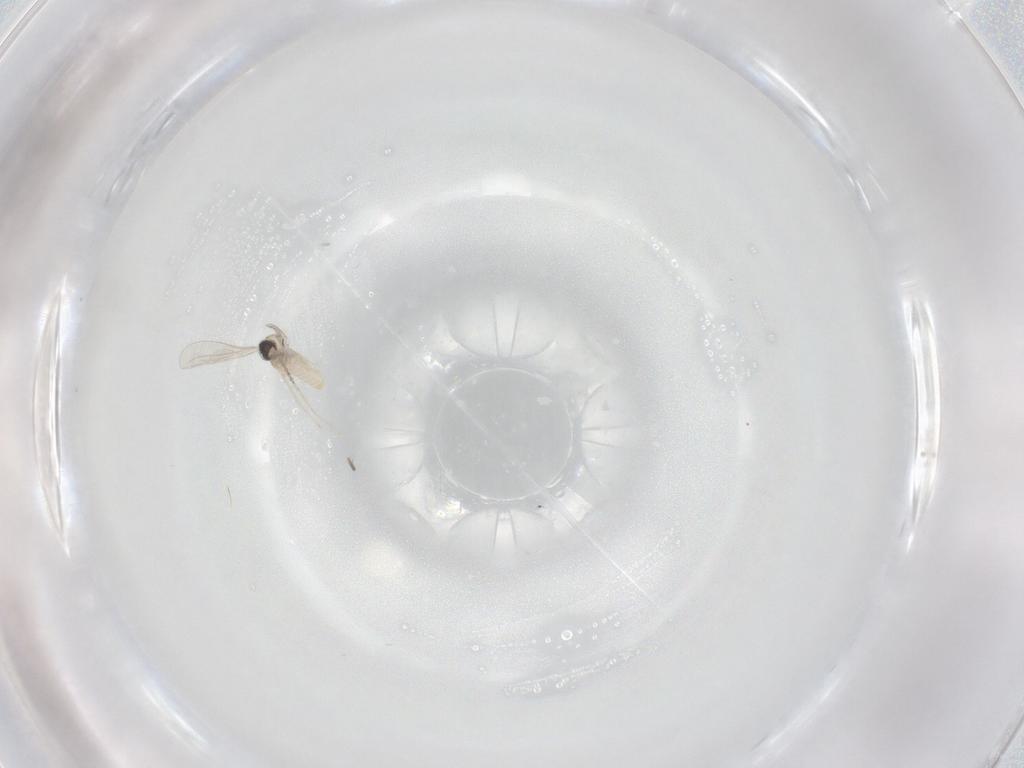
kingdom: Animalia
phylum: Arthropoda
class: Insecta
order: Diptera
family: Cecidomyiidae
